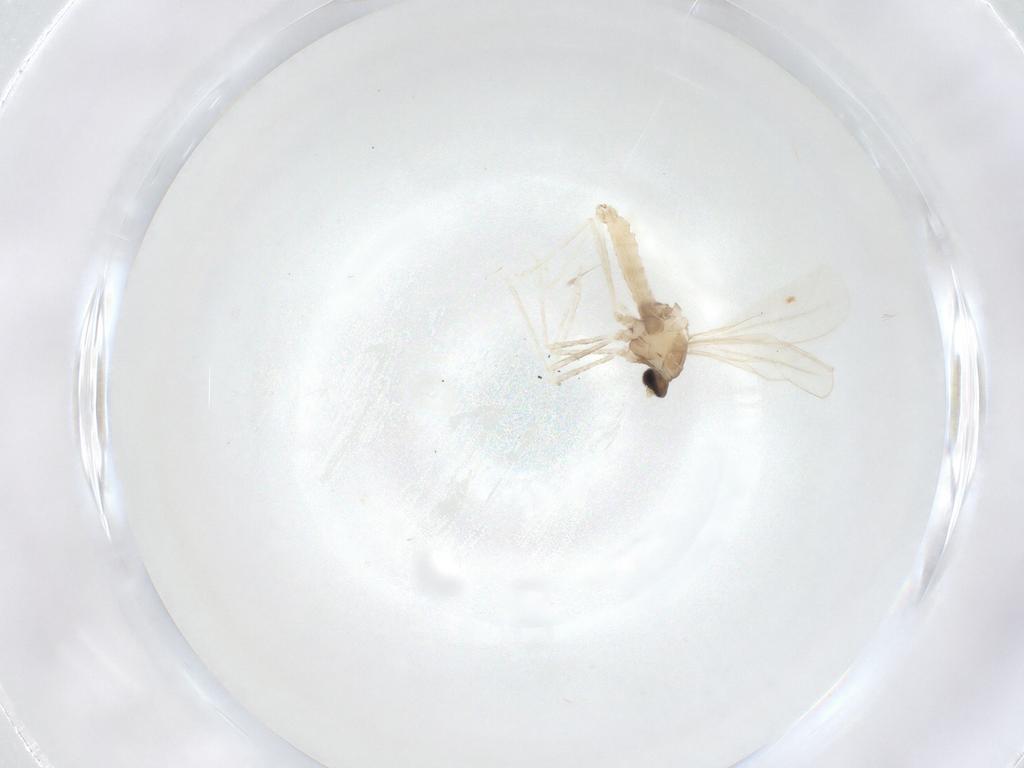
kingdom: Animalia
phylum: Arthropoda
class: Insecta
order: Diptera
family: Cecidomyiidae
